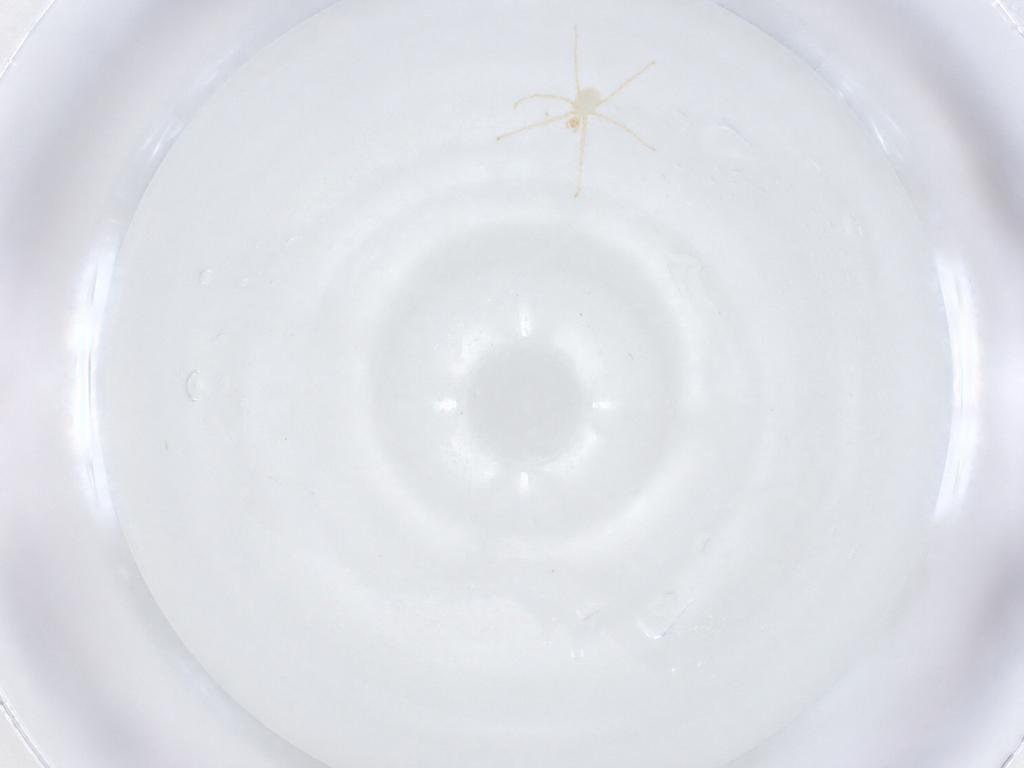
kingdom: Animalia
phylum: Arthropoda
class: Arachnida
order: Trombidiformes
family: Erythraeidae
